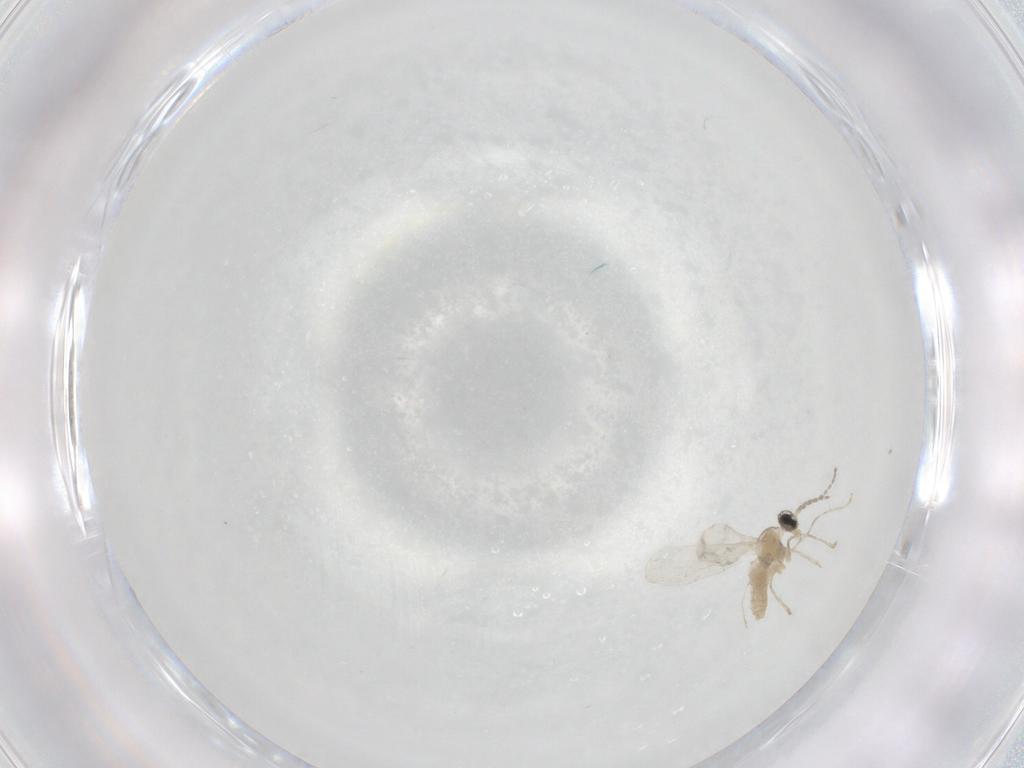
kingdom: Animalia
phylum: Arthropoda
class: Insecta
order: Diptera
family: Cecidomyiidae
